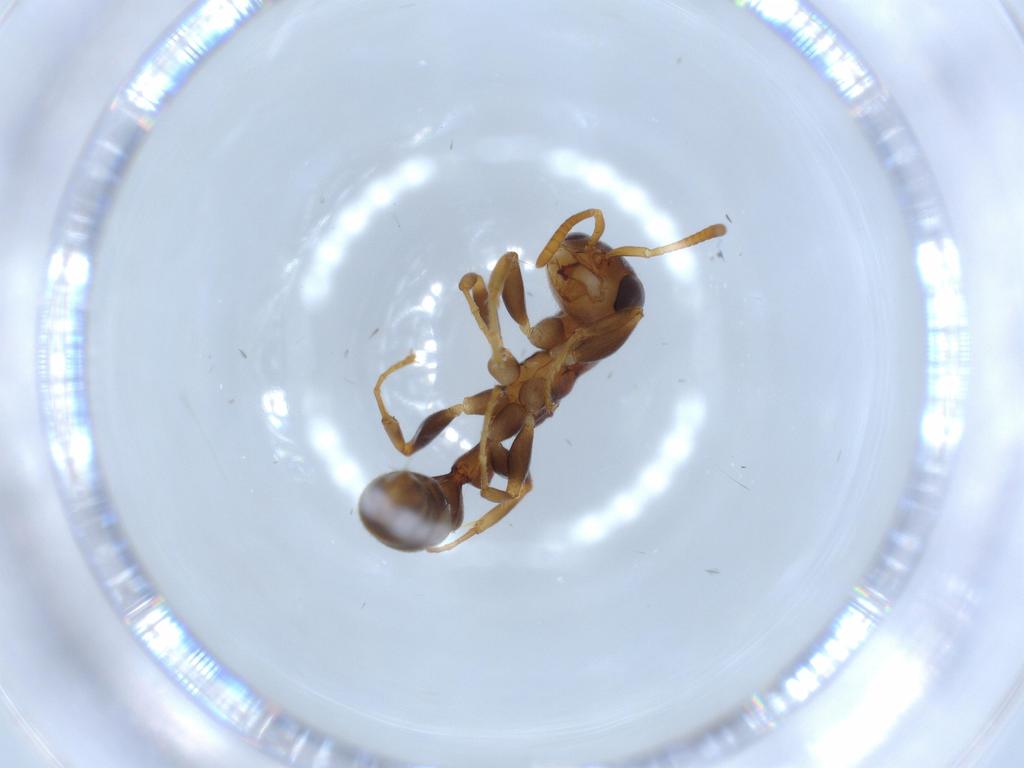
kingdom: Animalia
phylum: Arthropoda
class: Insecta
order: Hymenoptera
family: Formicidae
